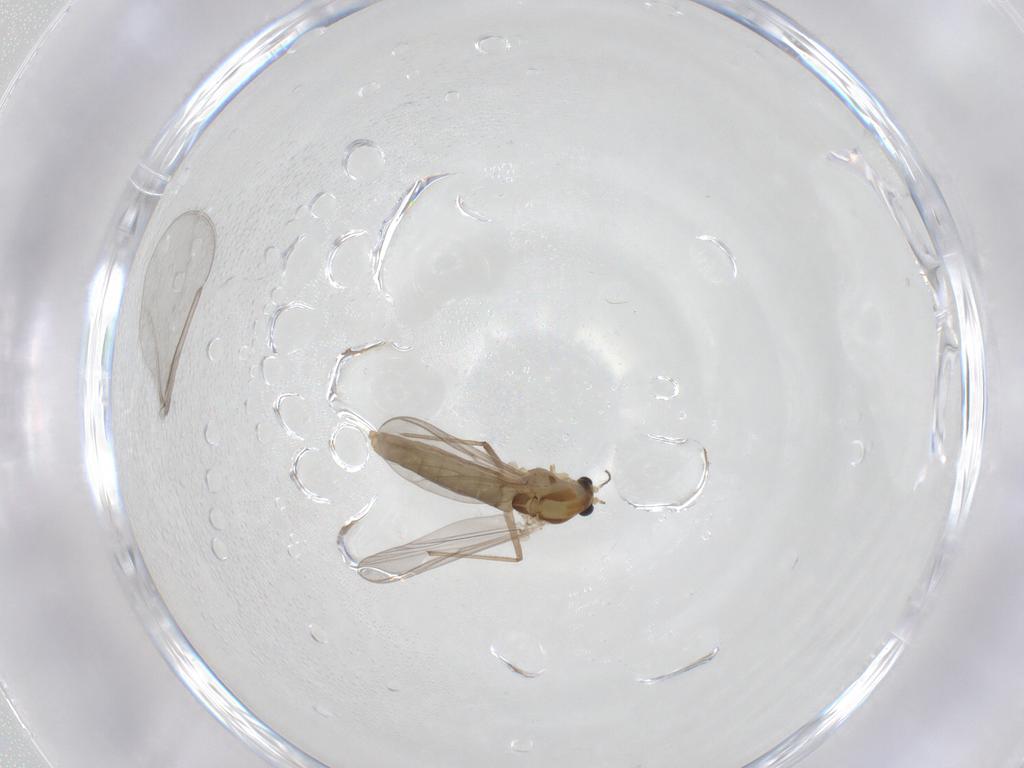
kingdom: Animalia
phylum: Arthropoda
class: Insecta
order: Diptera
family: Chironomidae
